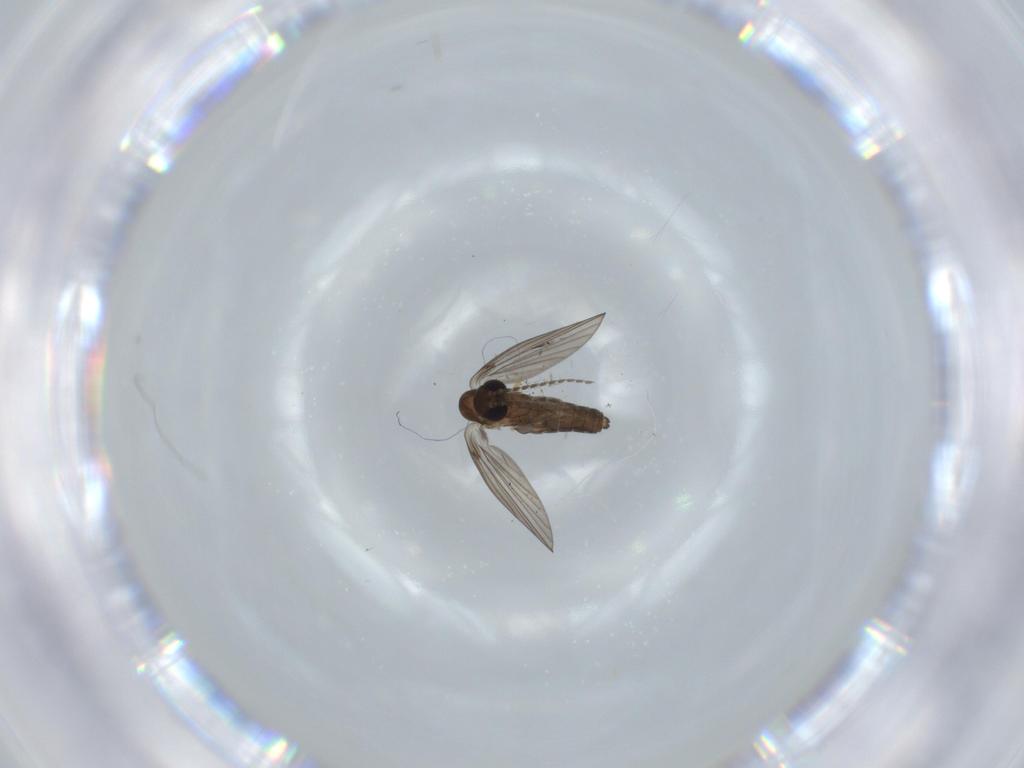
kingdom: Animalia
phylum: Arthropoda
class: Insecta
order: Diptera
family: Psychodidae
